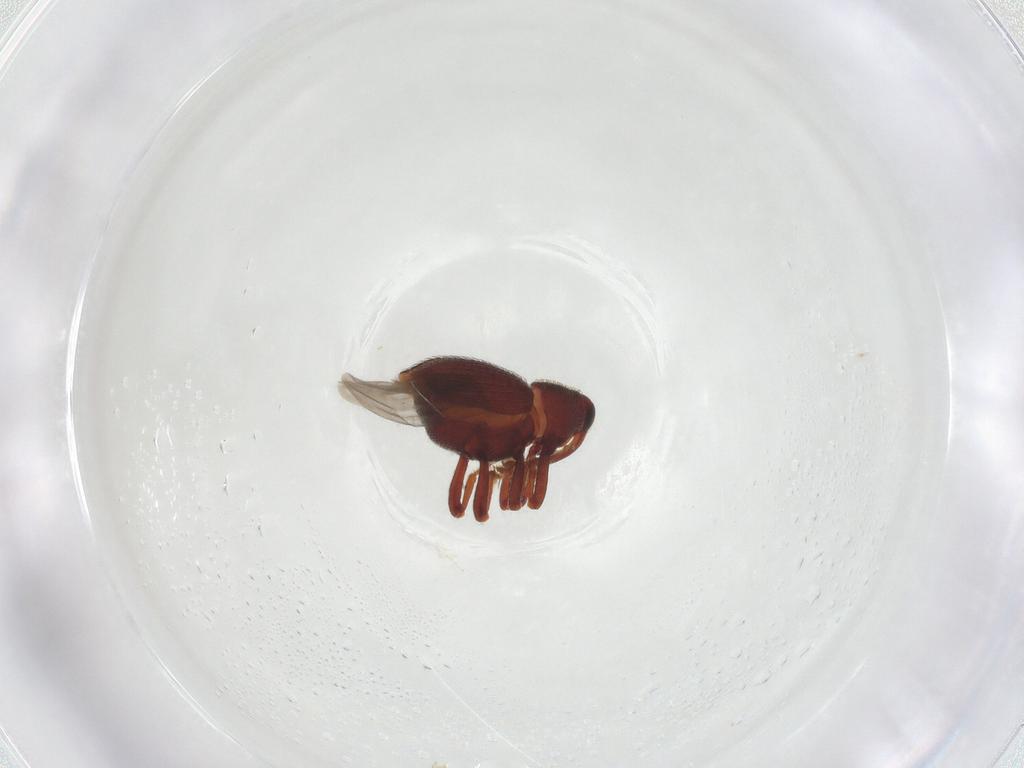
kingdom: Animalia
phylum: Arthropoda
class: Insecta
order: Coleoptera
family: Curculionidae
